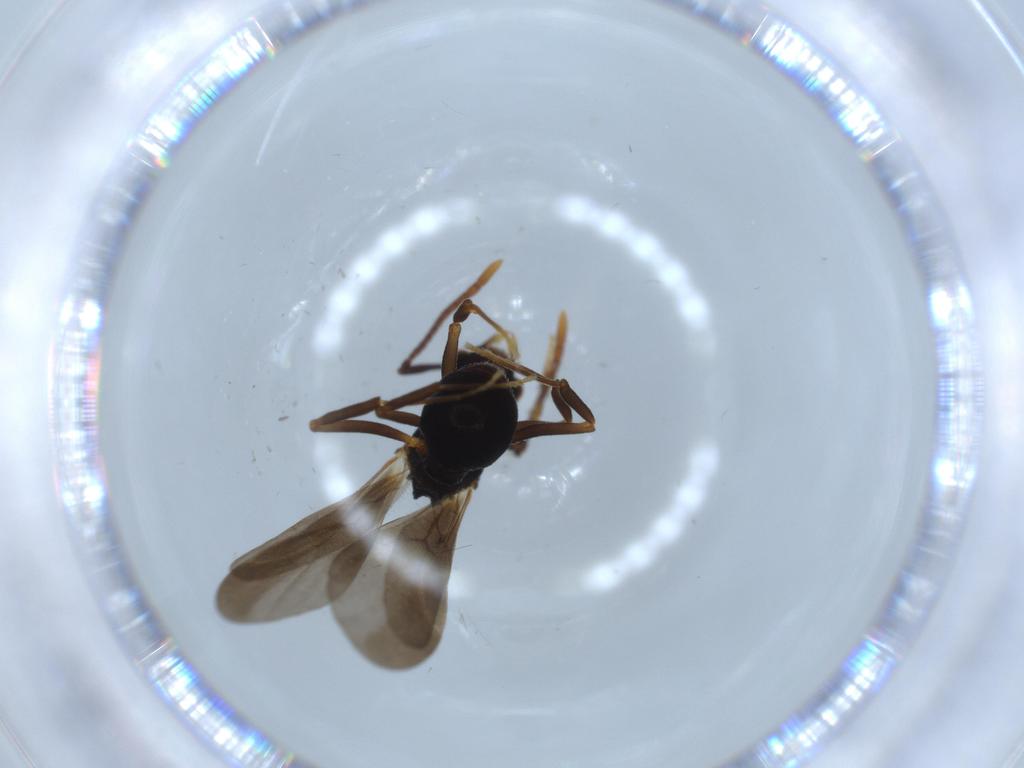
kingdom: Animalia
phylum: Arthropoda
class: Insecta
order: Hymenoptera
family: Formicidae
